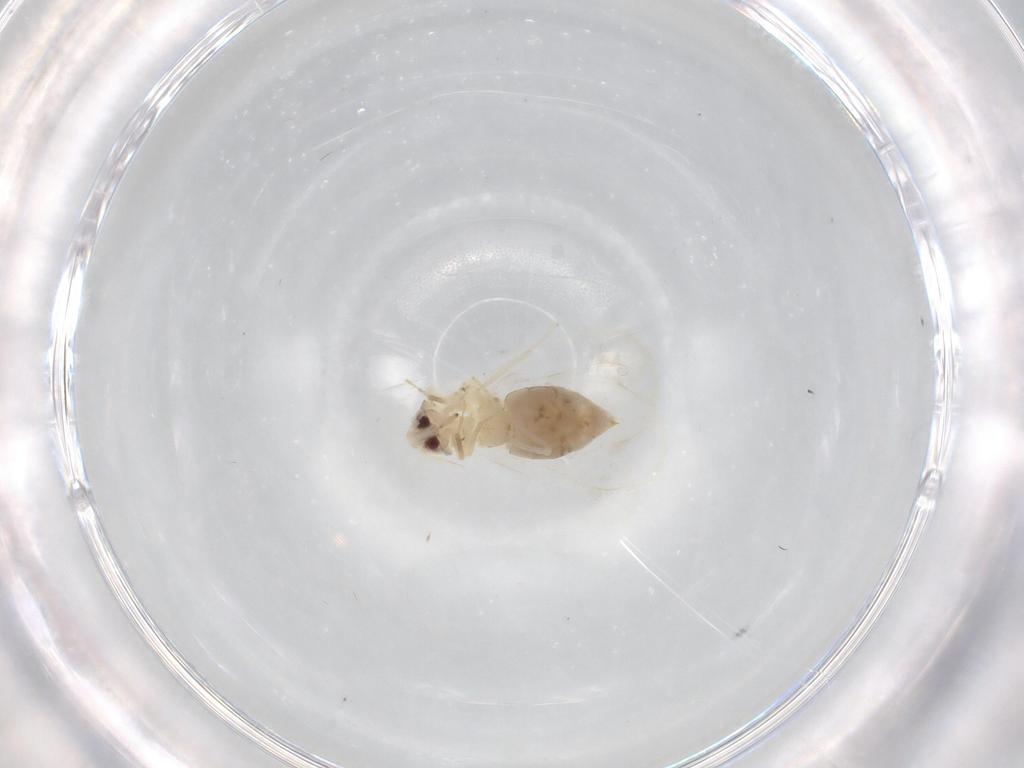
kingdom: Animalia
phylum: Arthropoda
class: Insecta
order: Hemiptera
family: Aleyrodidae
